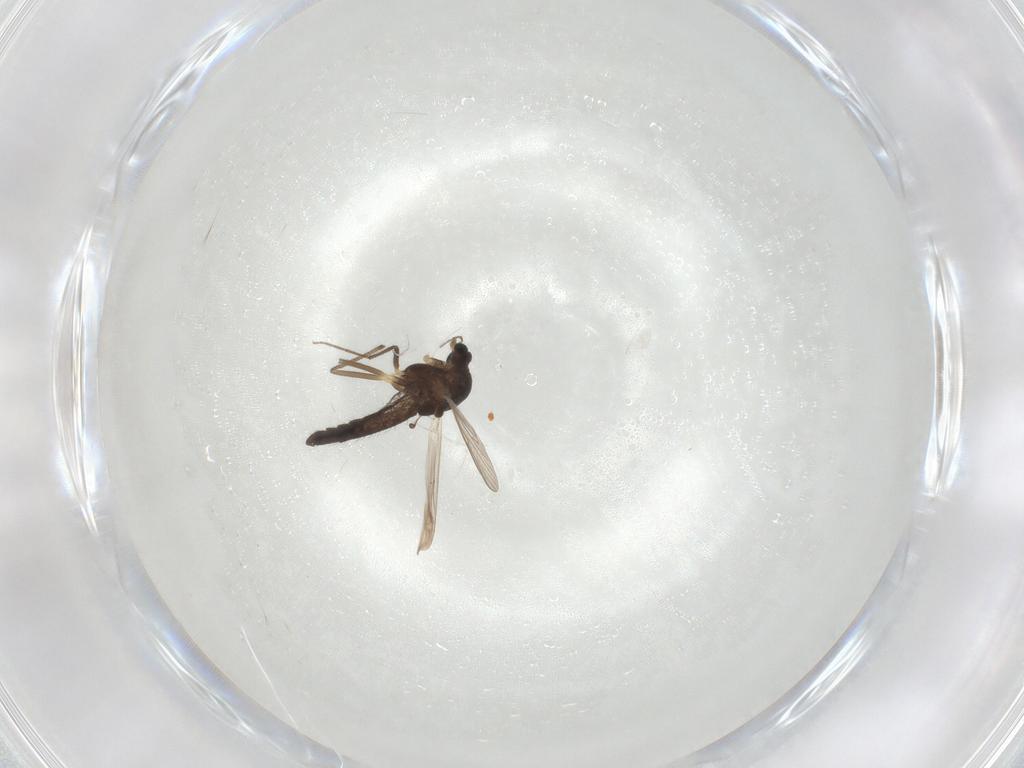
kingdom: Animalia
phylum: Arthropoda
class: Insecta
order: Diptera
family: Chironomidae
